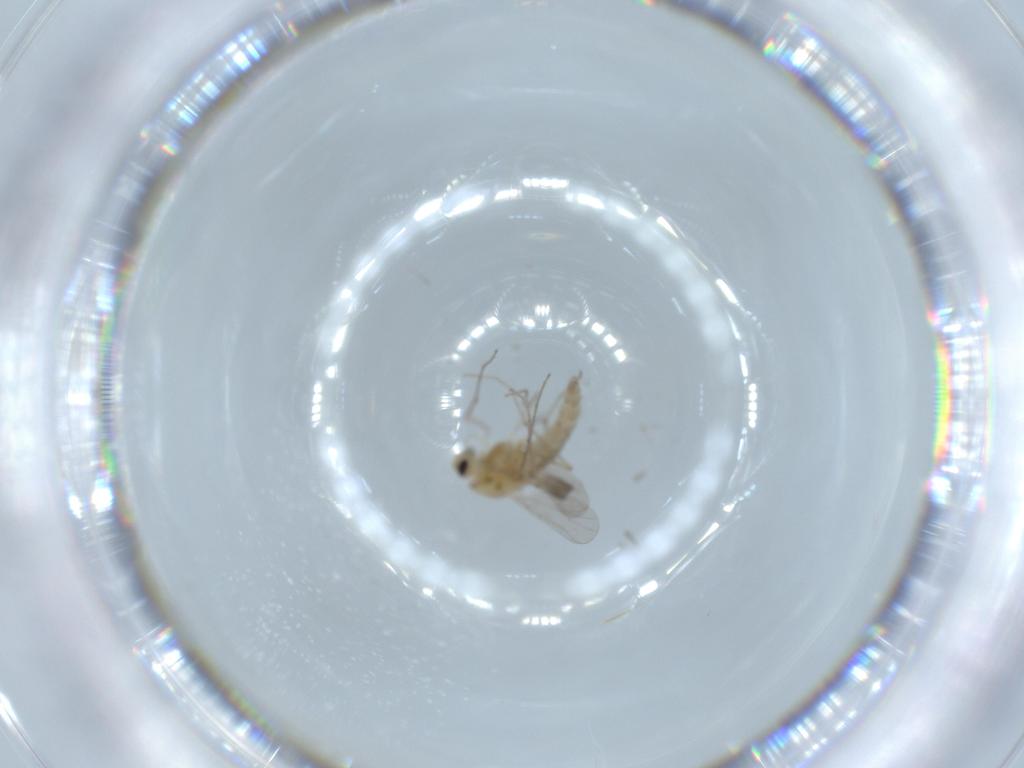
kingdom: Animalia
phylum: Arthropoda
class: Insecta
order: Diptera
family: Chironomidae
